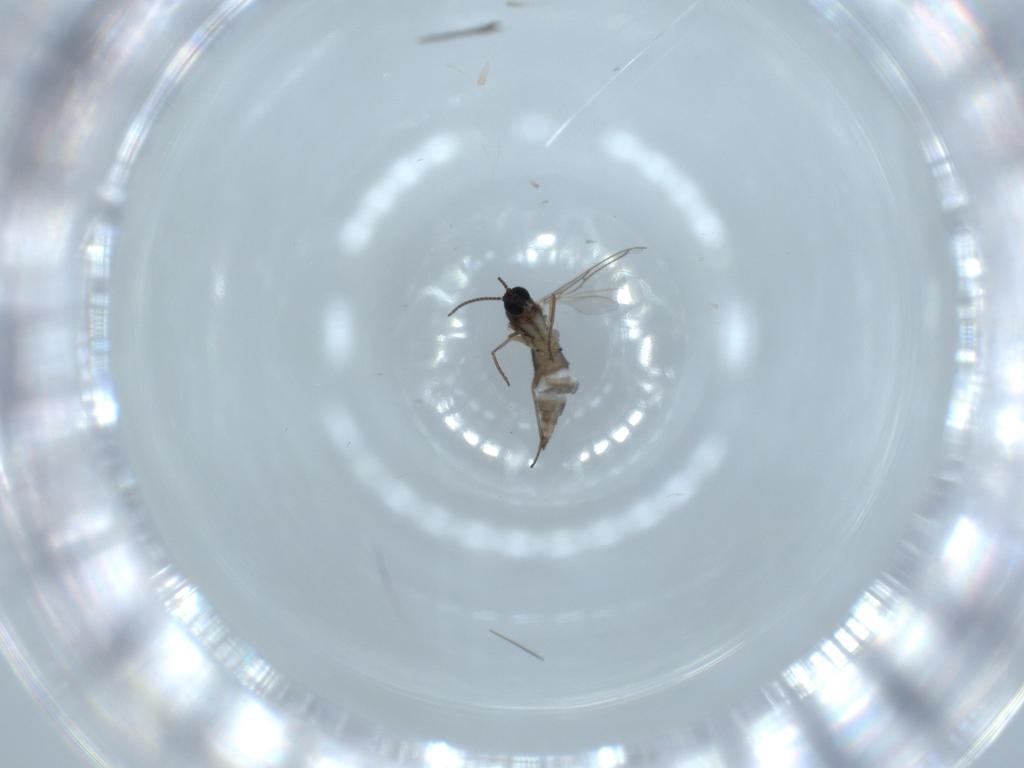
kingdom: Animalia
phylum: Arthropoda
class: Insecta
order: Diptera
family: Sciaridae
